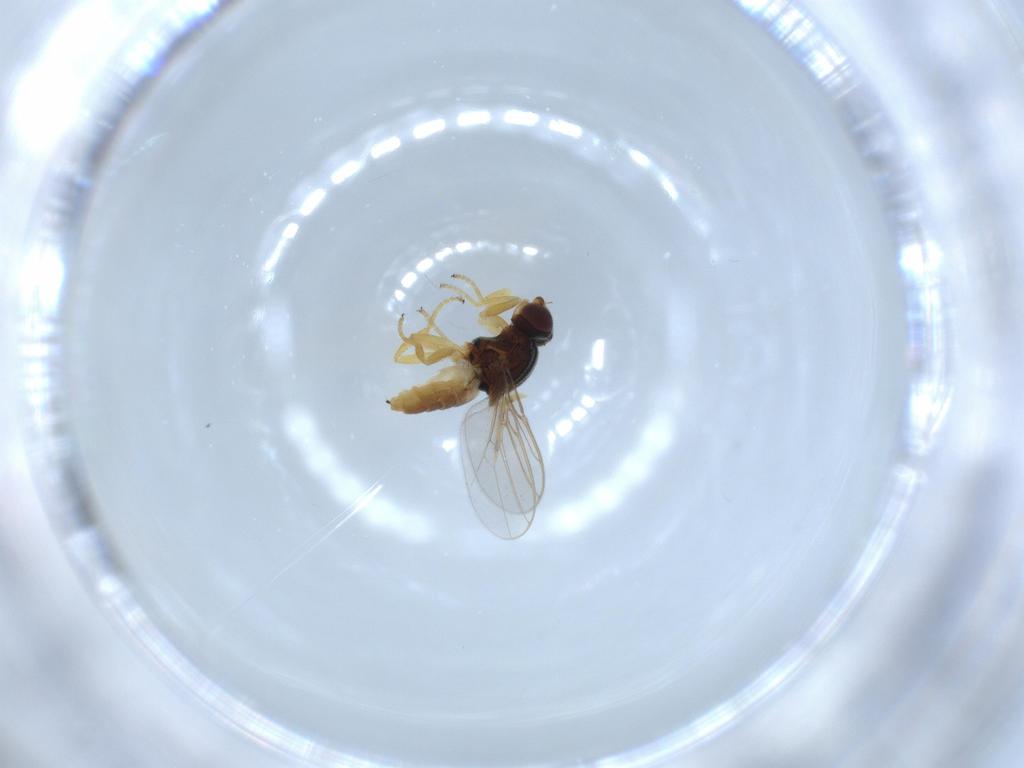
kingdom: Animalia
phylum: Arthropoda
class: Insecta
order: Diptera
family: Chloropidae
